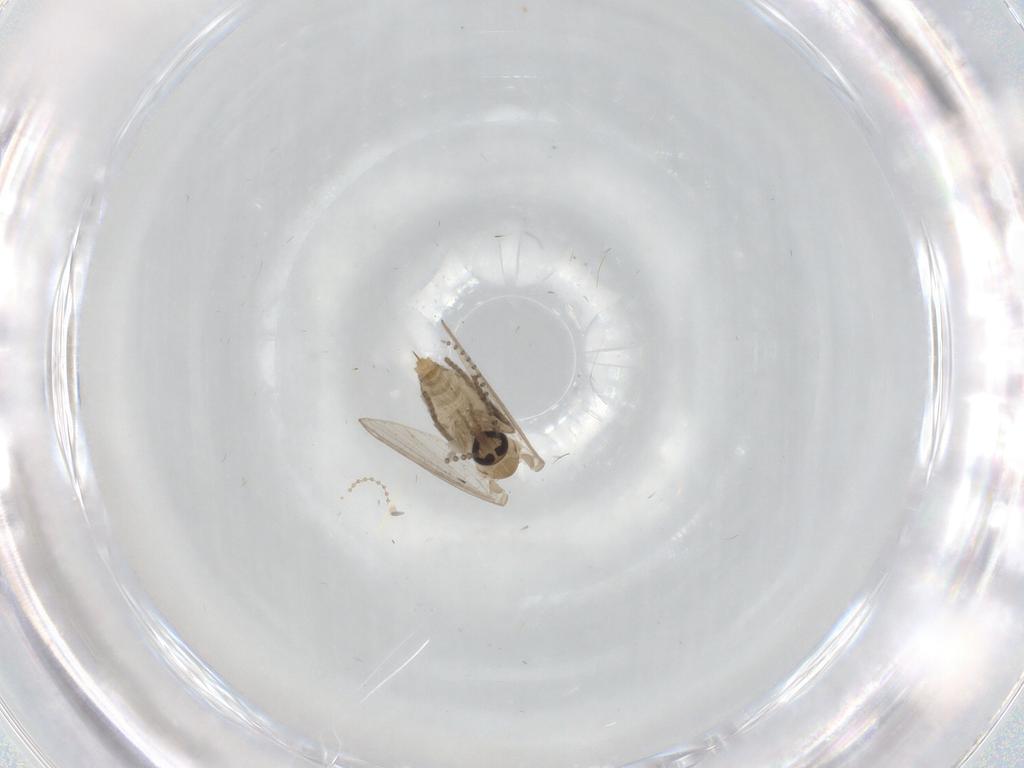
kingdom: Animalia
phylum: Arthropoda
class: Insecta
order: Diptera
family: Psychodidae
